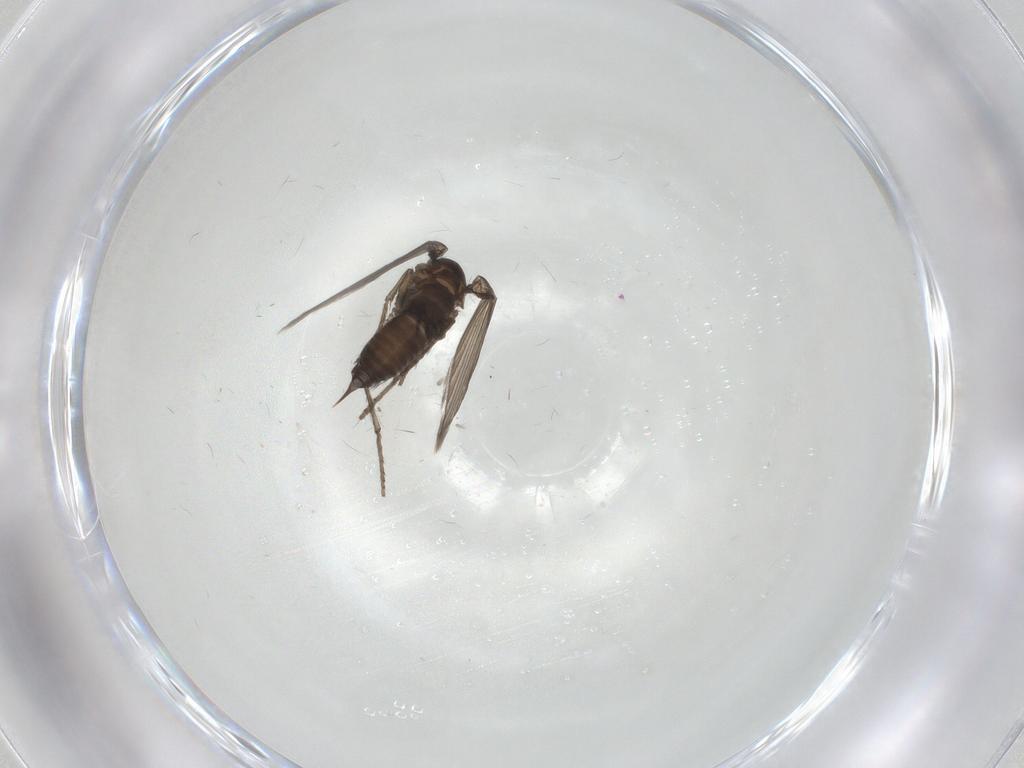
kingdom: Animalia
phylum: Arthropoda
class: Insecta
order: Diptera
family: Psychodidae
